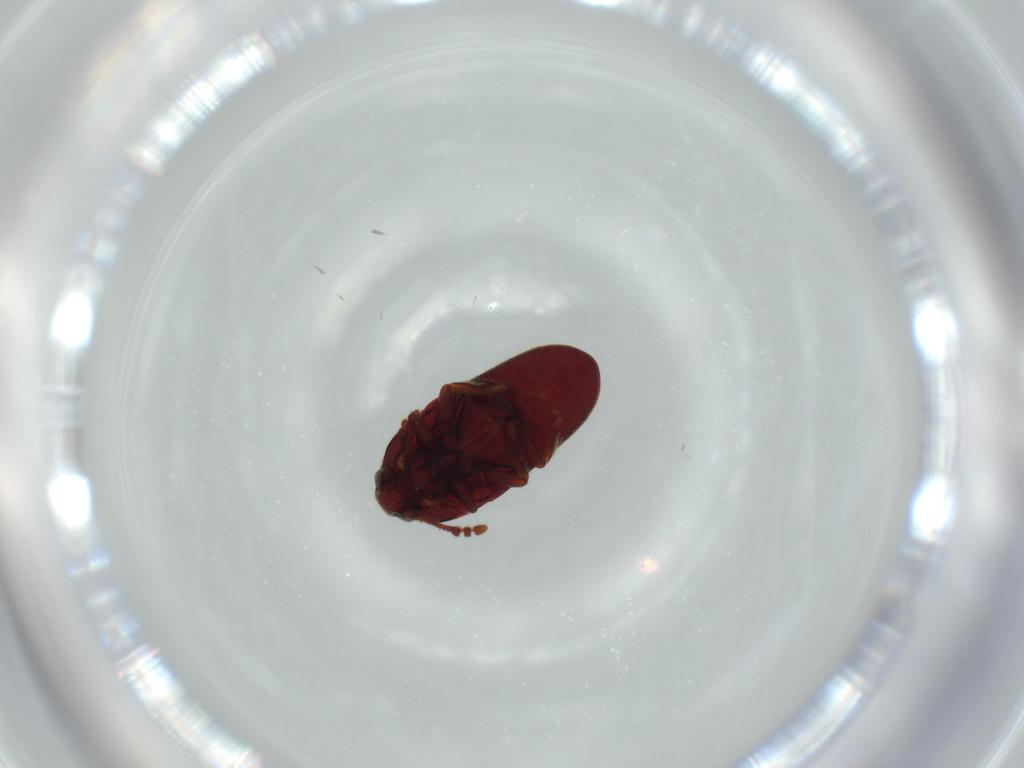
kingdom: Animalia
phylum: Arthropoda
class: Insecta
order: Coleoptera
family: Throscidae
